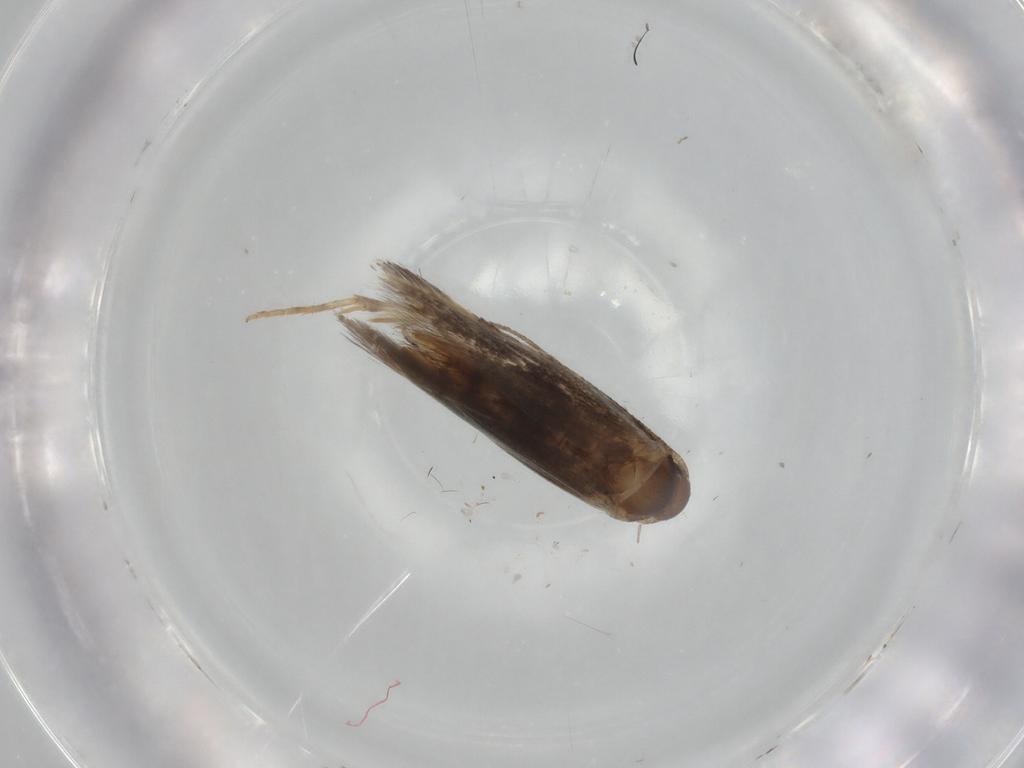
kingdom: Animalia
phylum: Arthropoda
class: Insecta
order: Lepidoptera
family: Elachistidae
